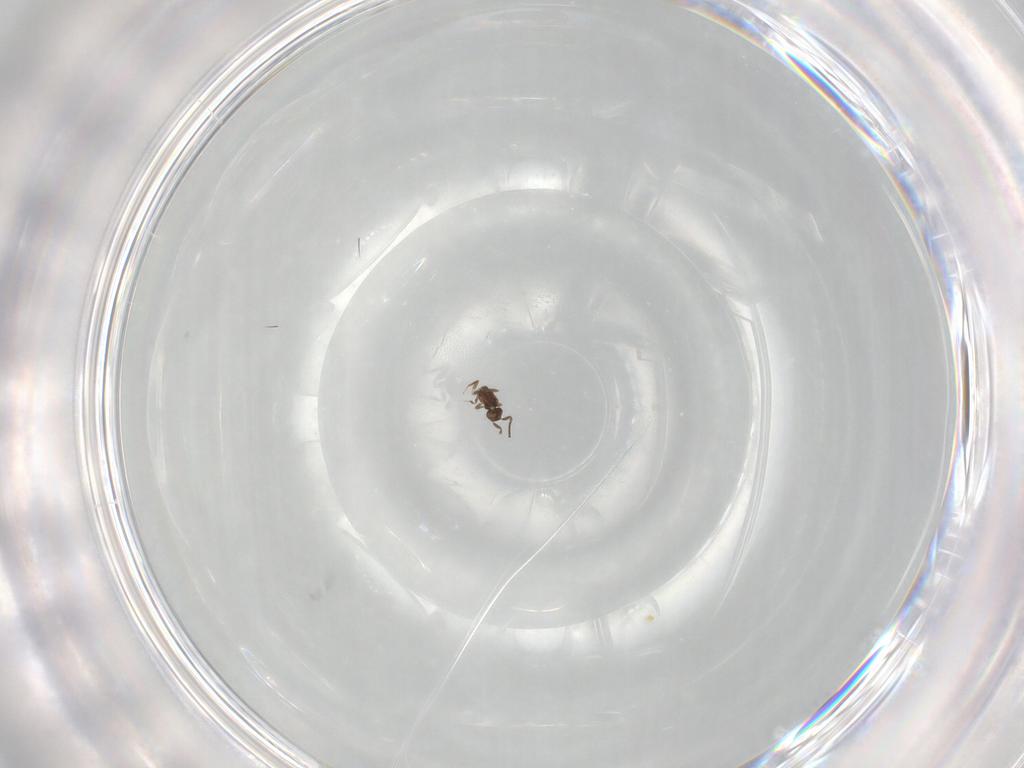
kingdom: Animalia
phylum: Arthropoda
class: Insecta
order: Hymenoptera
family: Mymaridae
